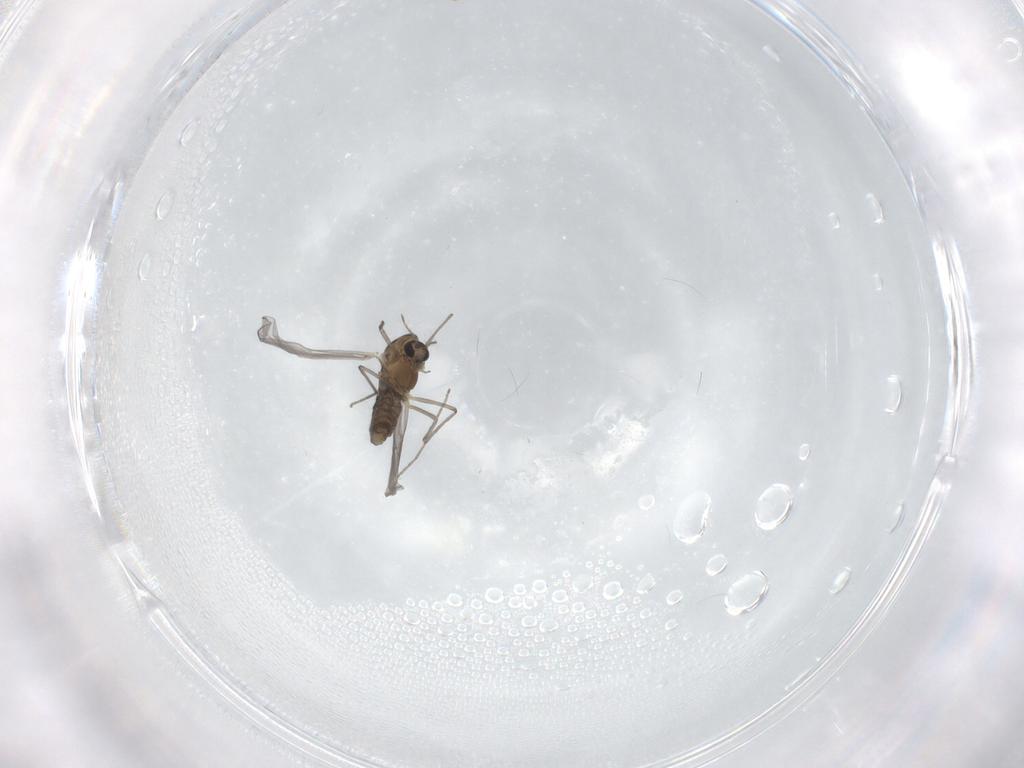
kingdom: Animalia
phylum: Arthropoda
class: Insecta
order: Diptera
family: Chironomidae
